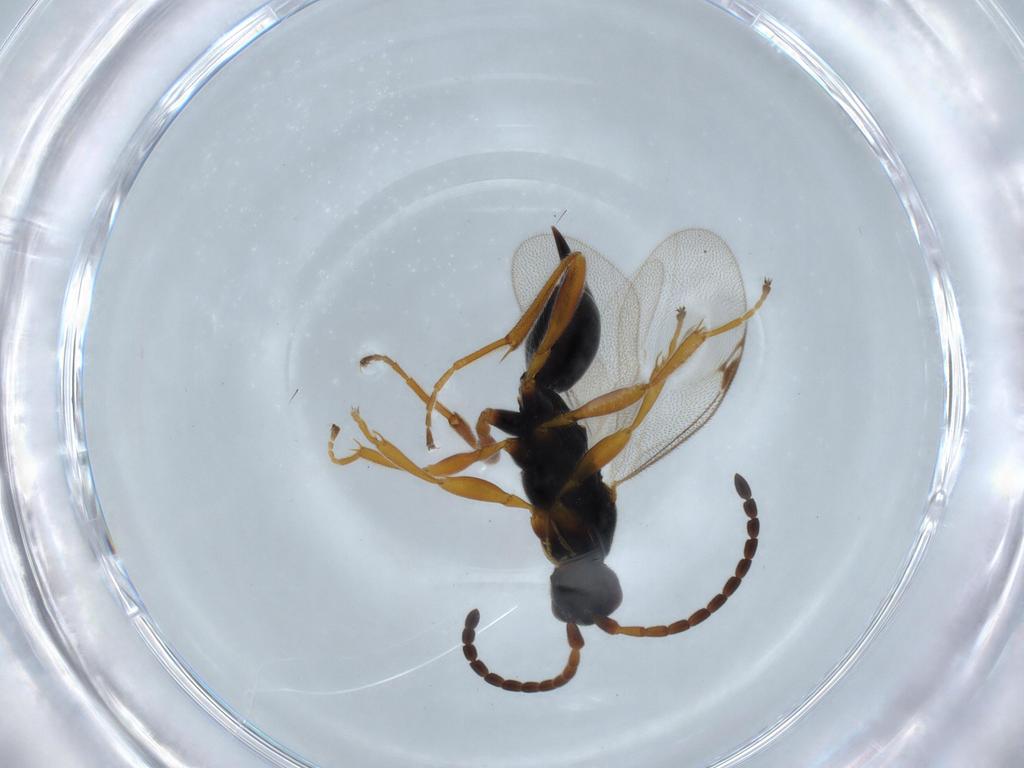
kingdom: Animalia
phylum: Arthropoda
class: Insecta
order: Hymenoptera
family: Proctotrupidae
